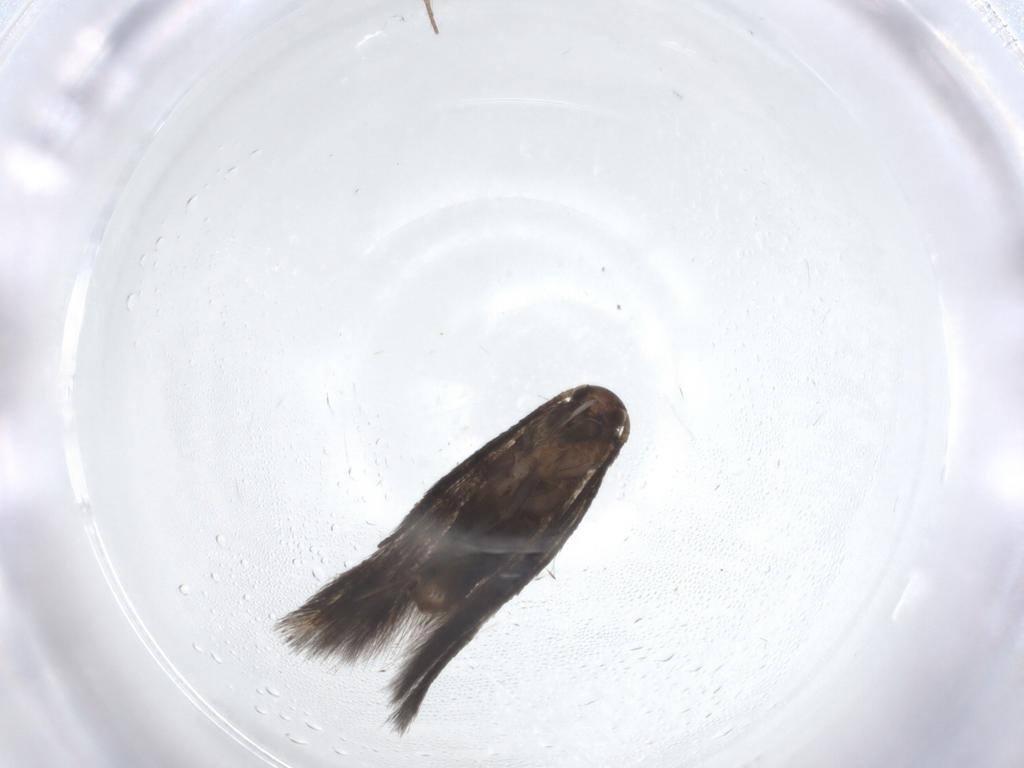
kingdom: Animalia
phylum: Arthropoda
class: Insecta
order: Lepidoptera
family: Elachistidae
